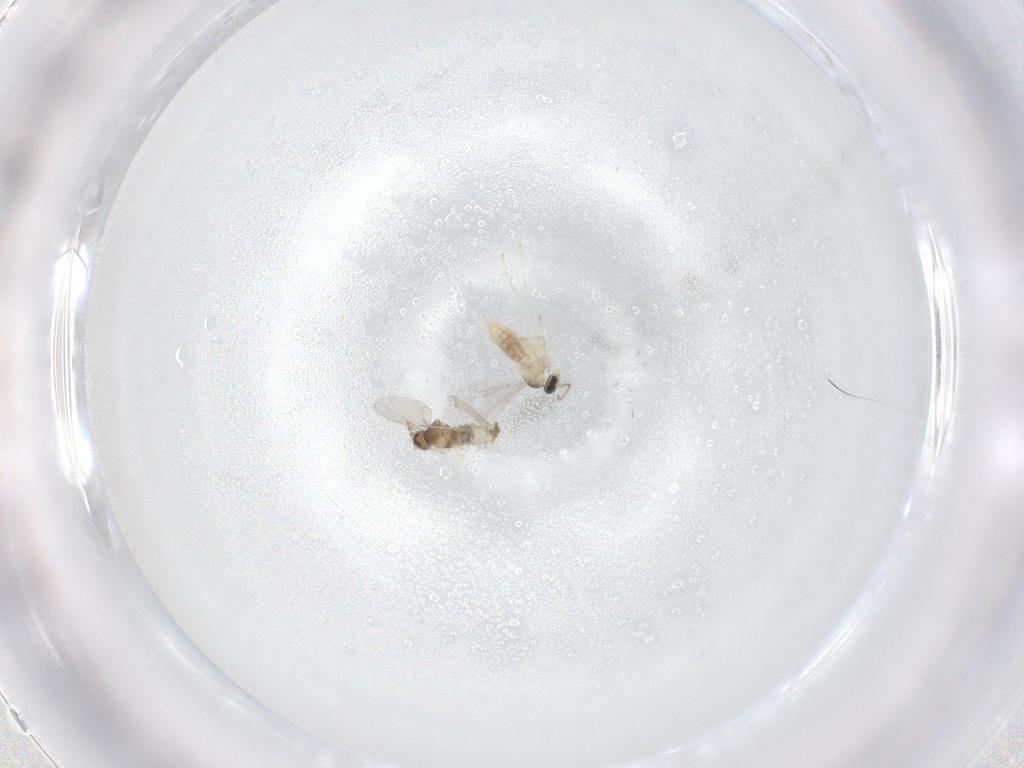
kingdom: Animalia
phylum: Arthropoda
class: Insecta
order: Diptera
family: Cecidomyiidae
